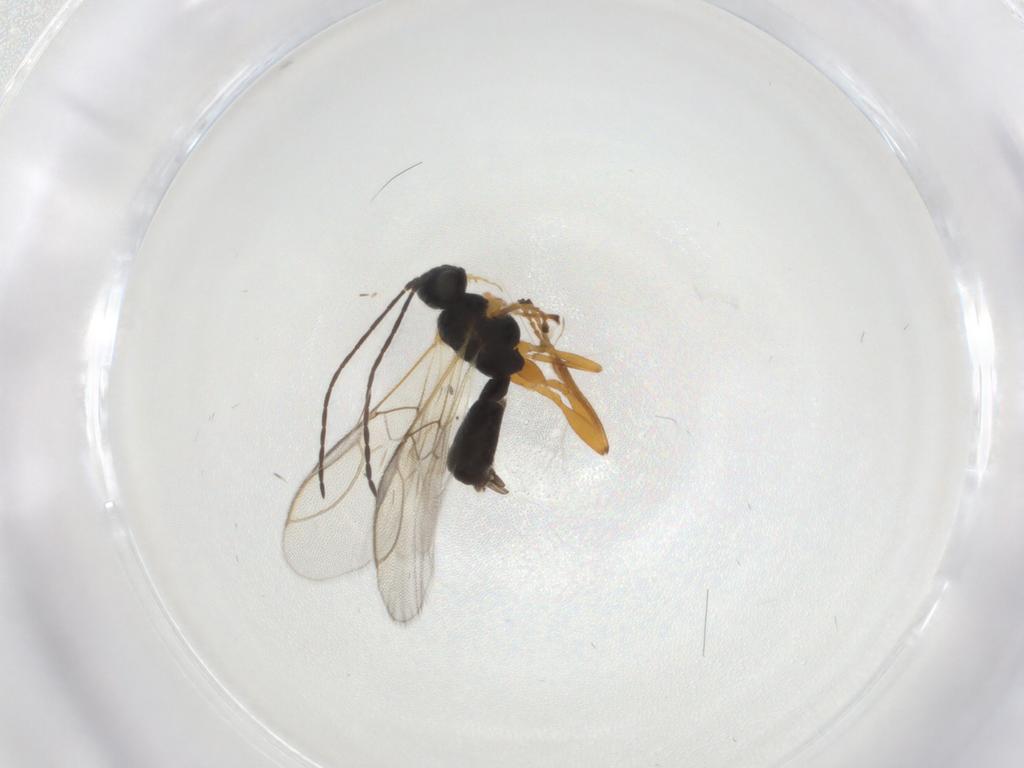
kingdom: Animalia
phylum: Arthropoda
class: Insecta
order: Hymenoptera
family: Braconidae
